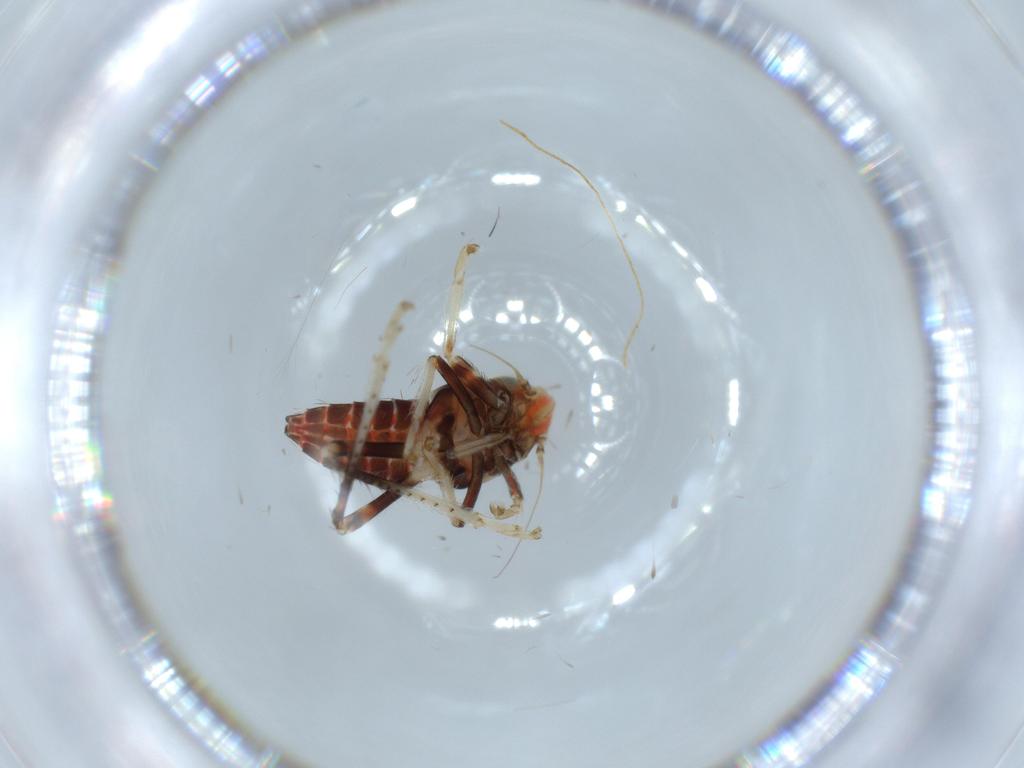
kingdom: Animalia
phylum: Arthropoda
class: Insecta
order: Hemiptera
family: Cicadellidae
